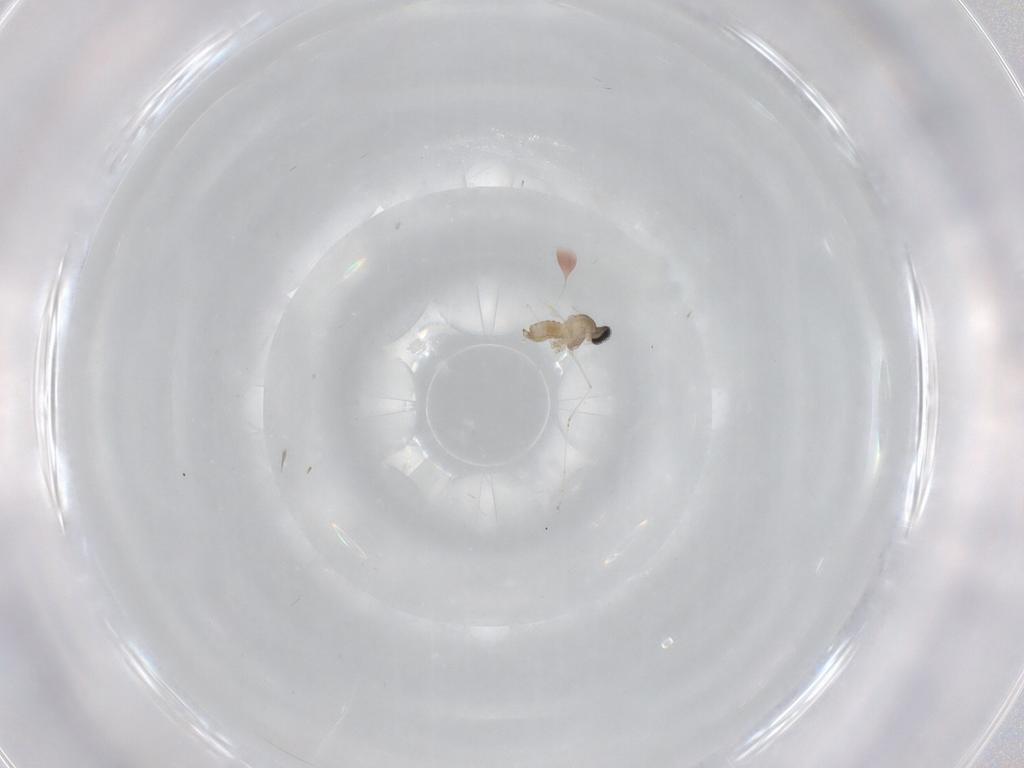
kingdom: Animalia
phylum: Arthropoda
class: Insecta
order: Diptera
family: Cecidomyiidae
